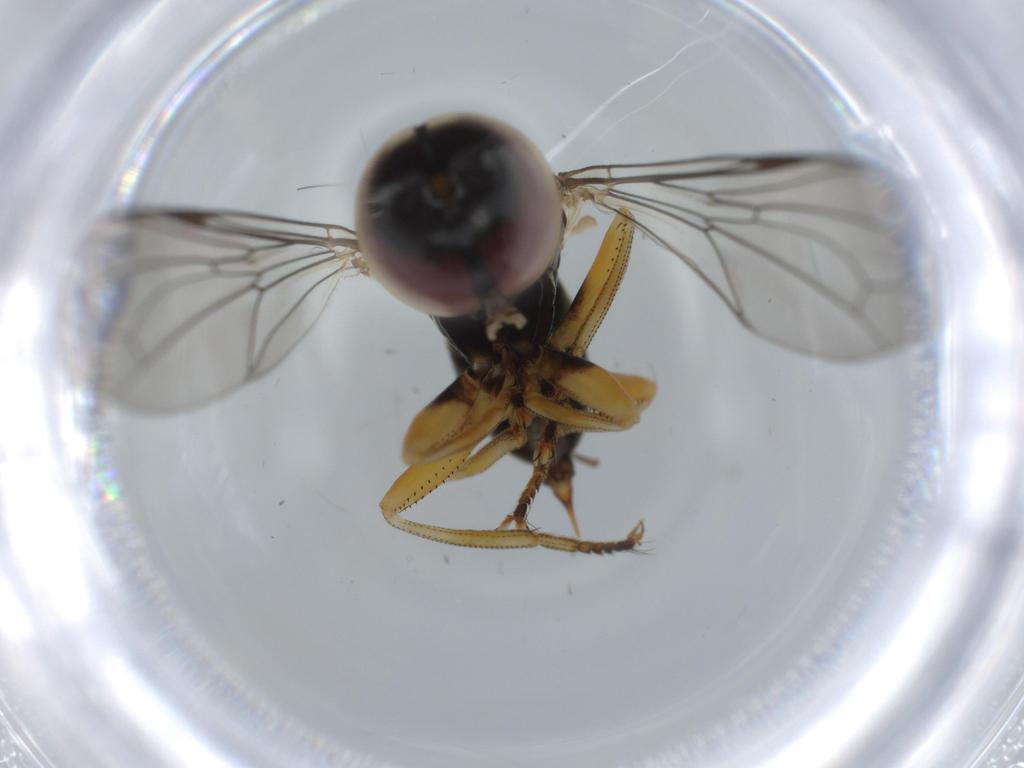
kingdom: Animalia
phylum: Arthropoda
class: Insecta
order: Diptera
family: Pipunculidae
